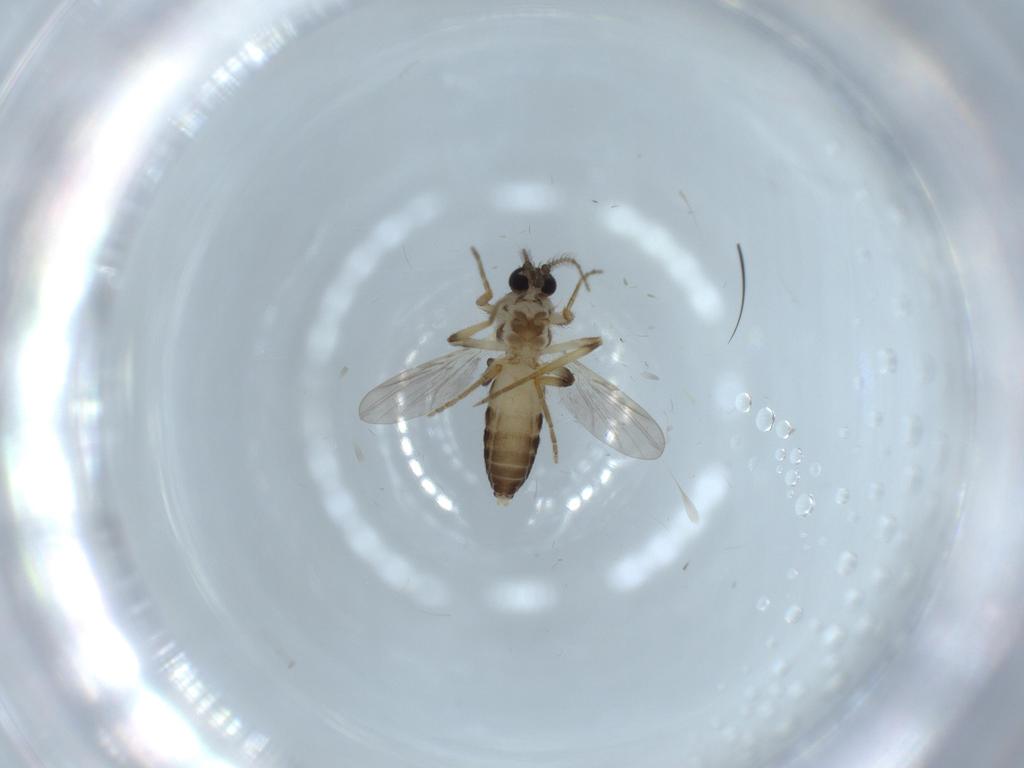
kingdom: Animalia
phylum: Arthropoda
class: Insecta
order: Diptera
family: Ceratopogonidae
